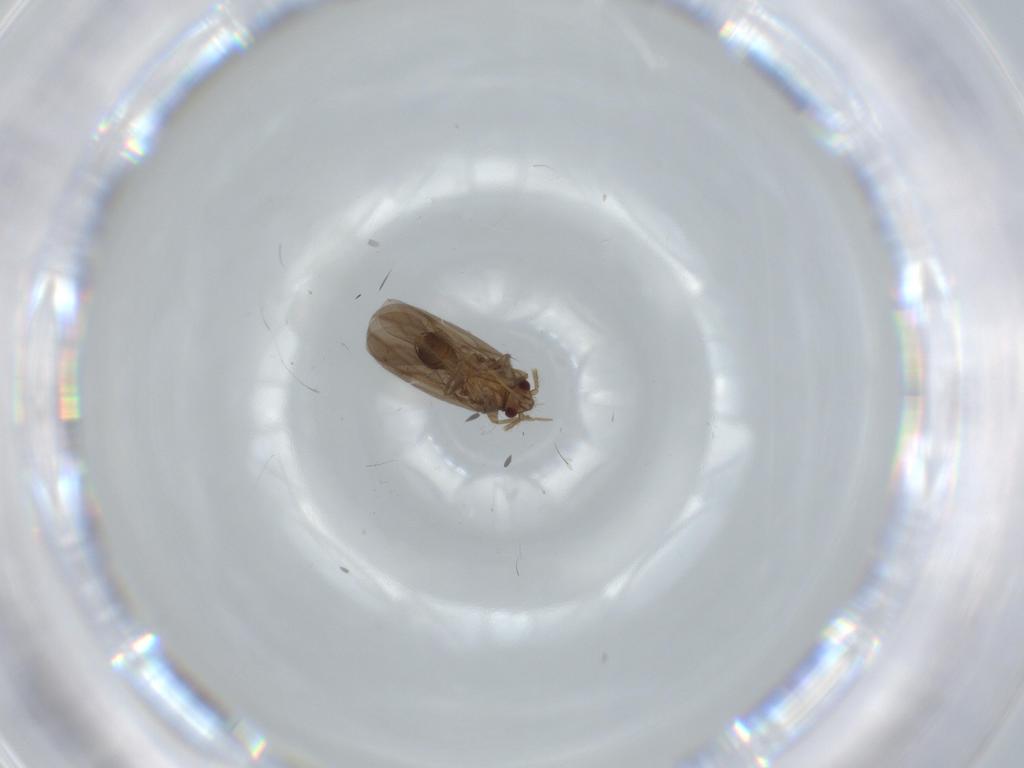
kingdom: Animalia
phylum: Arthropoda
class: Insecta
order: Hemiptera
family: Ceratocombidae
